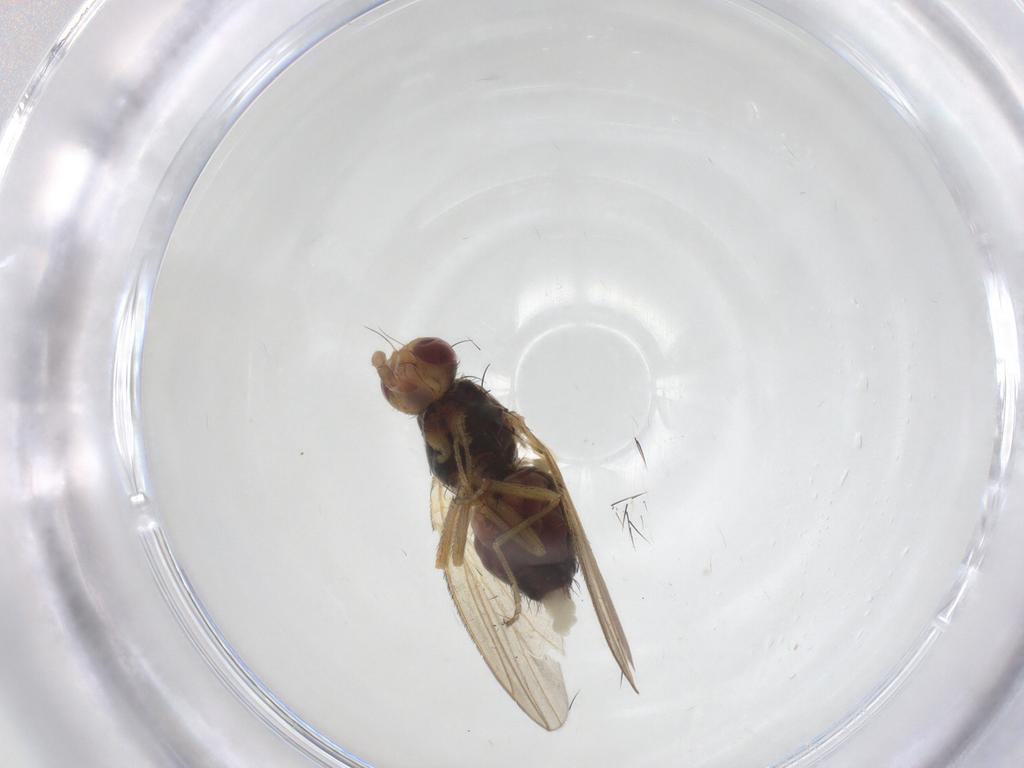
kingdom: Animalia
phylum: Arthropoda
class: Insecta
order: Diptera
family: Heleomyzidae
